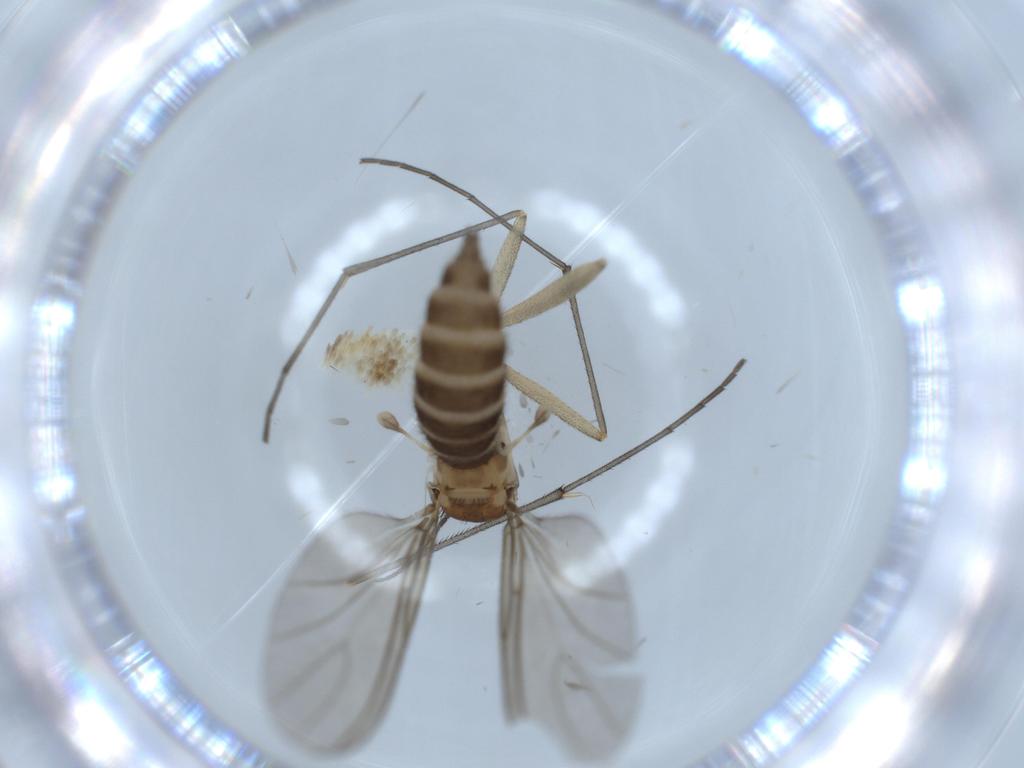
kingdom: Animalia
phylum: Arthropoda
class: Insecta
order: Diptera
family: Sciaridae
